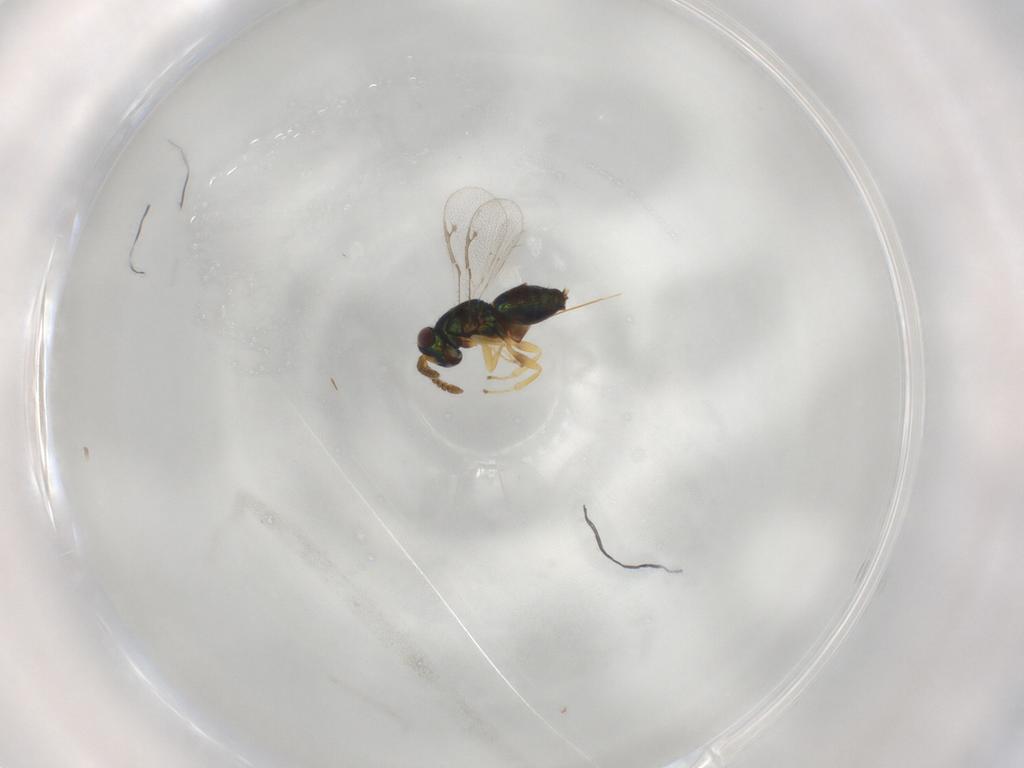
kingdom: Animalia
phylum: Arthropoda
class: Insecta
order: Hymenoptera
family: Pteromalidae
